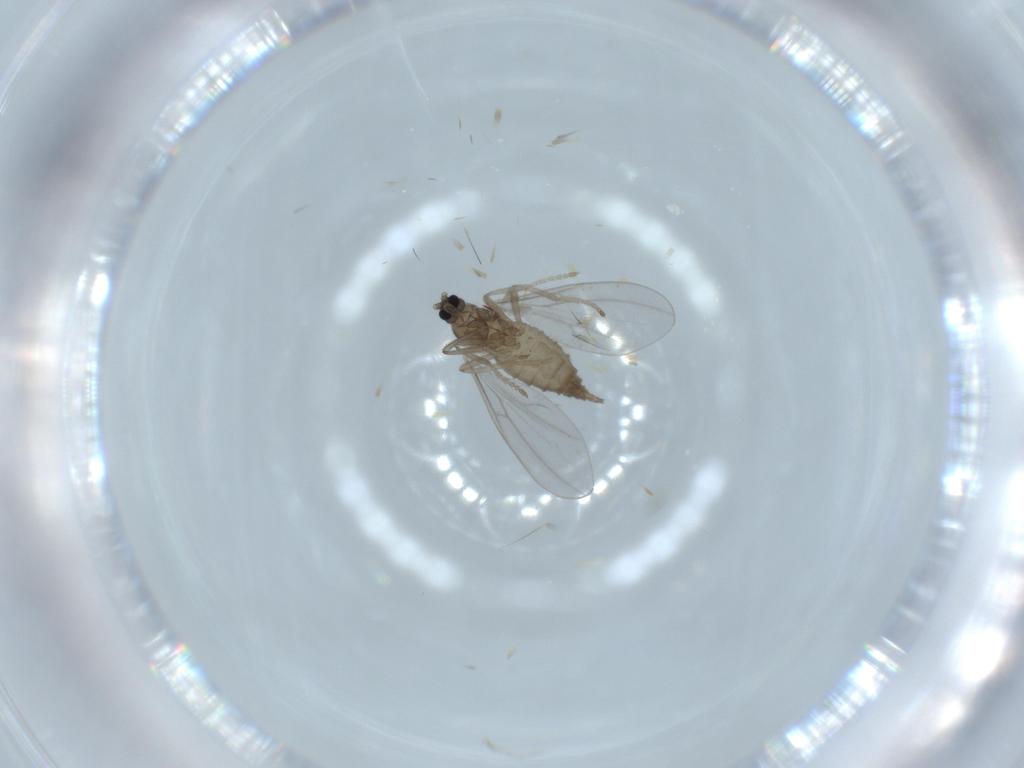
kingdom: Animalia
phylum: Arthropoda
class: Insecta
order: Diptera
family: Cecidomyiidae
